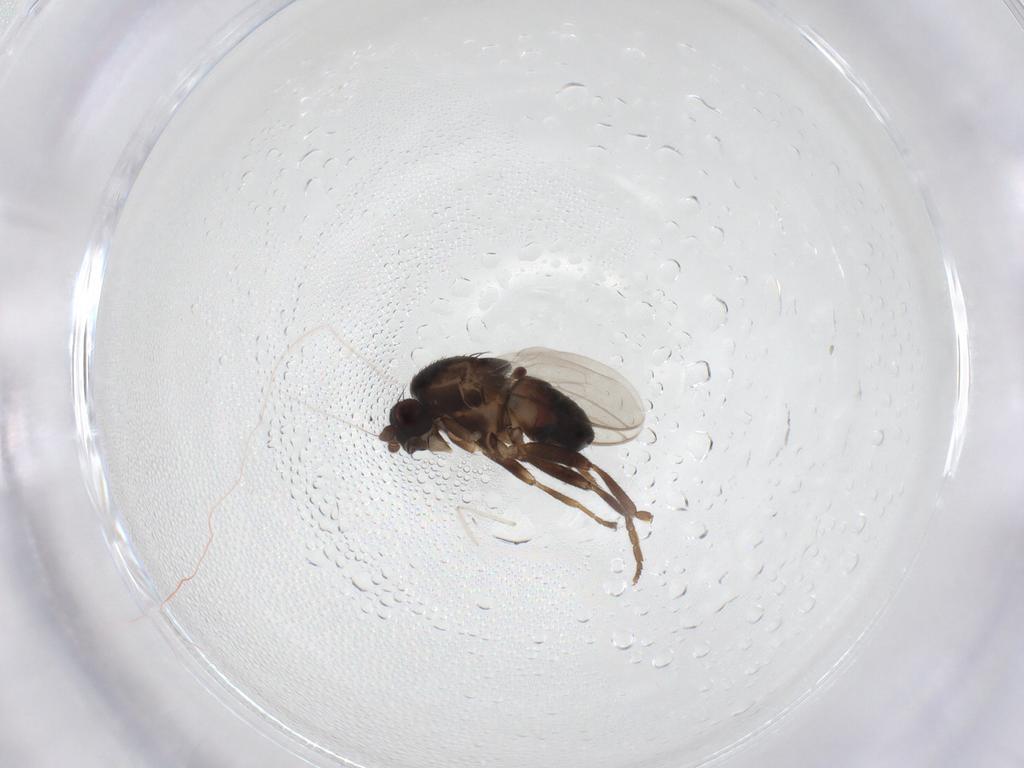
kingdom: Animalia
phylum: Arthropoda
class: Insecta
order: Diptera
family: Sphaeroceridae
